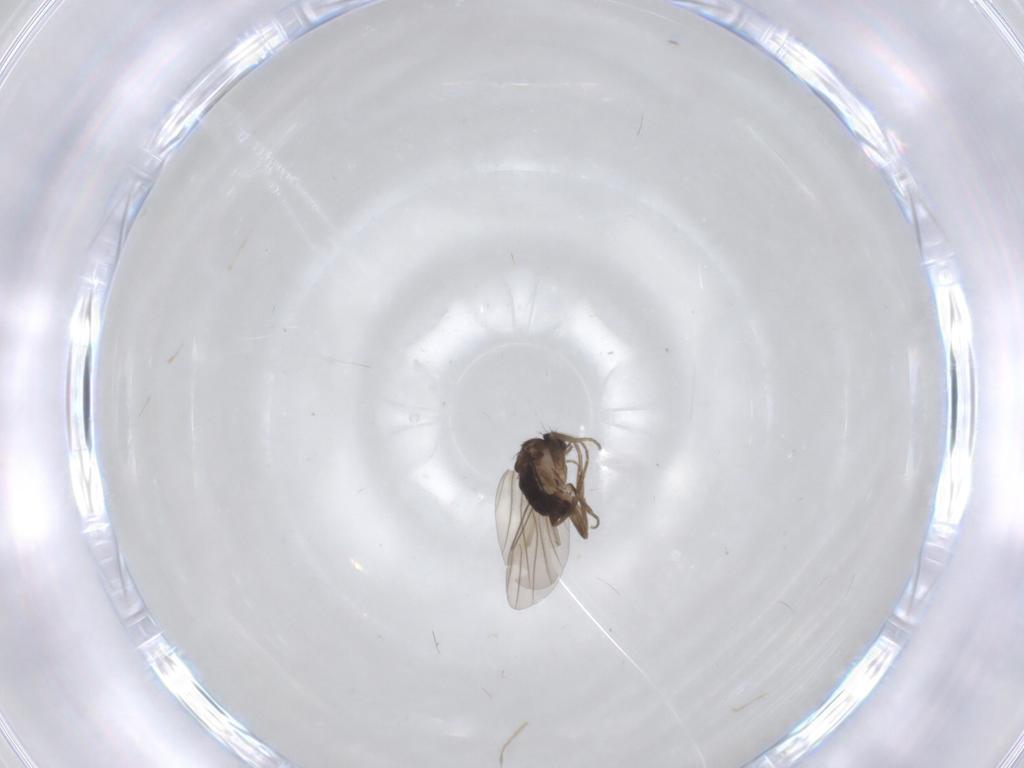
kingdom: Animalia
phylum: Arthropoda
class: Insecta
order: Diptera
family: Phoridae
